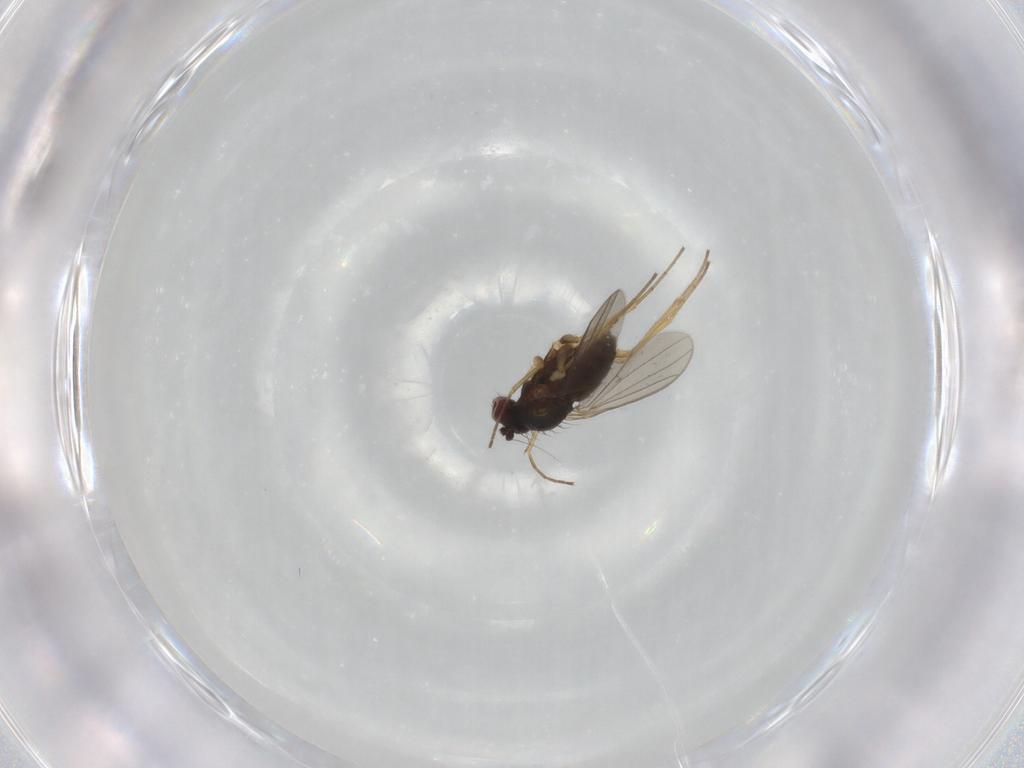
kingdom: Animalia
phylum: Arthropoda
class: Insecta
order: Diptera
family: Dolichopodidae
